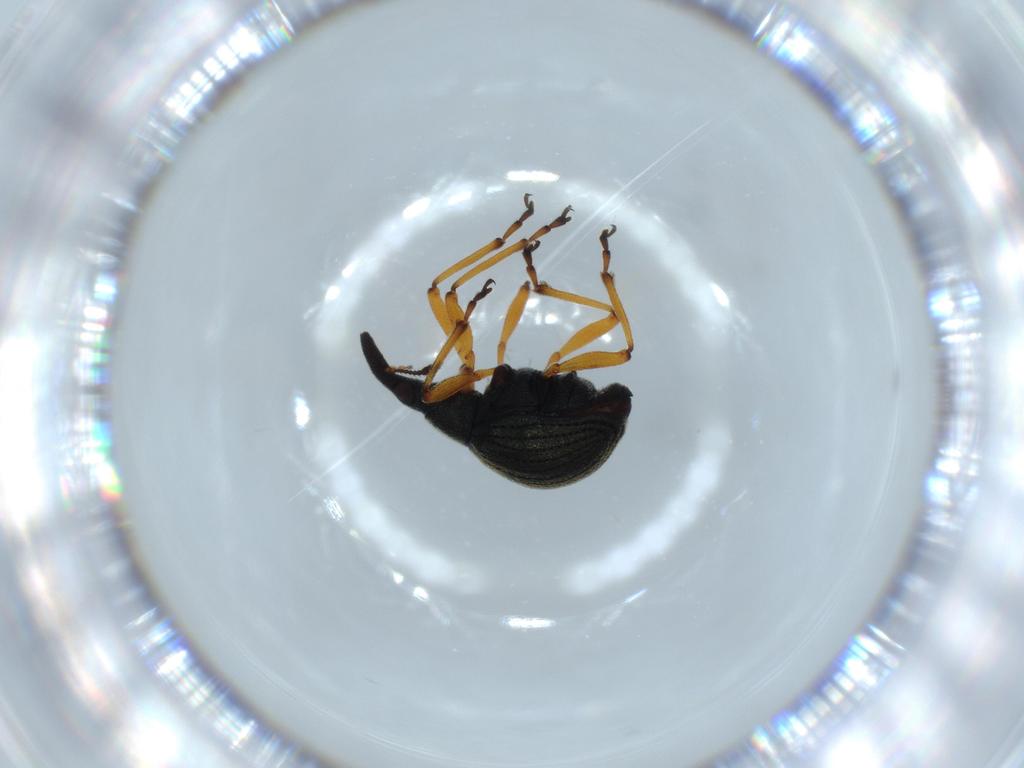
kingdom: Animalia
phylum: Arthropoda
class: Insecta
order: Coleoptera
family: Brentidae
